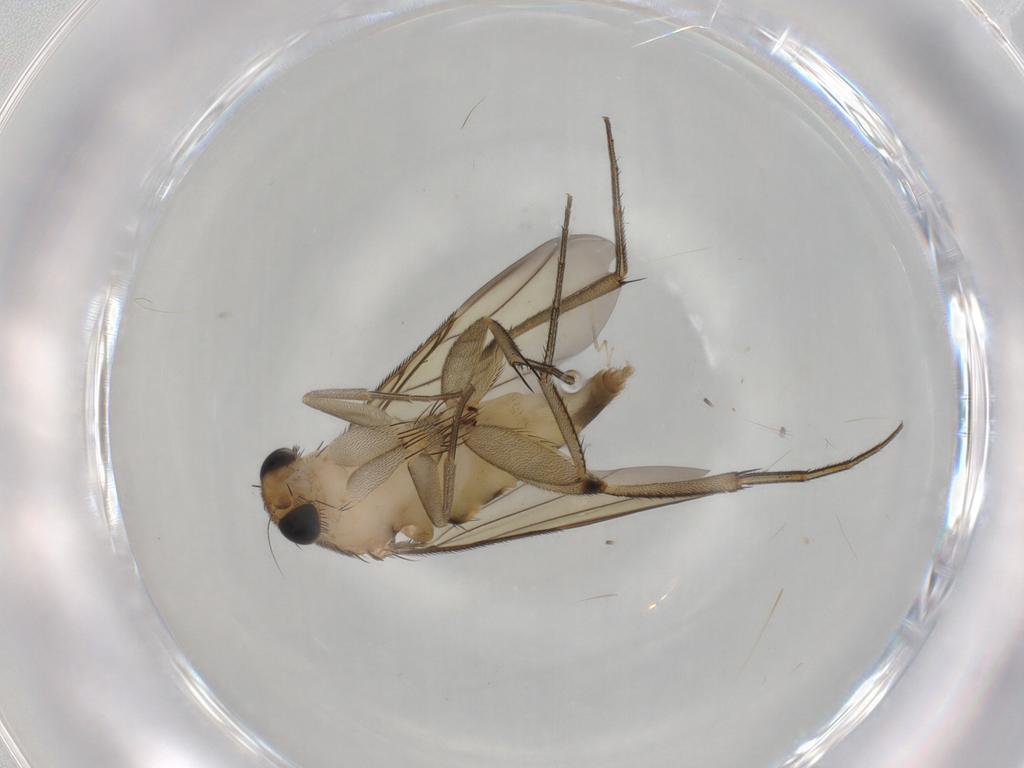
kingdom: Animalia
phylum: Arthropoda
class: Insecta
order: Diptera
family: Phoridae
